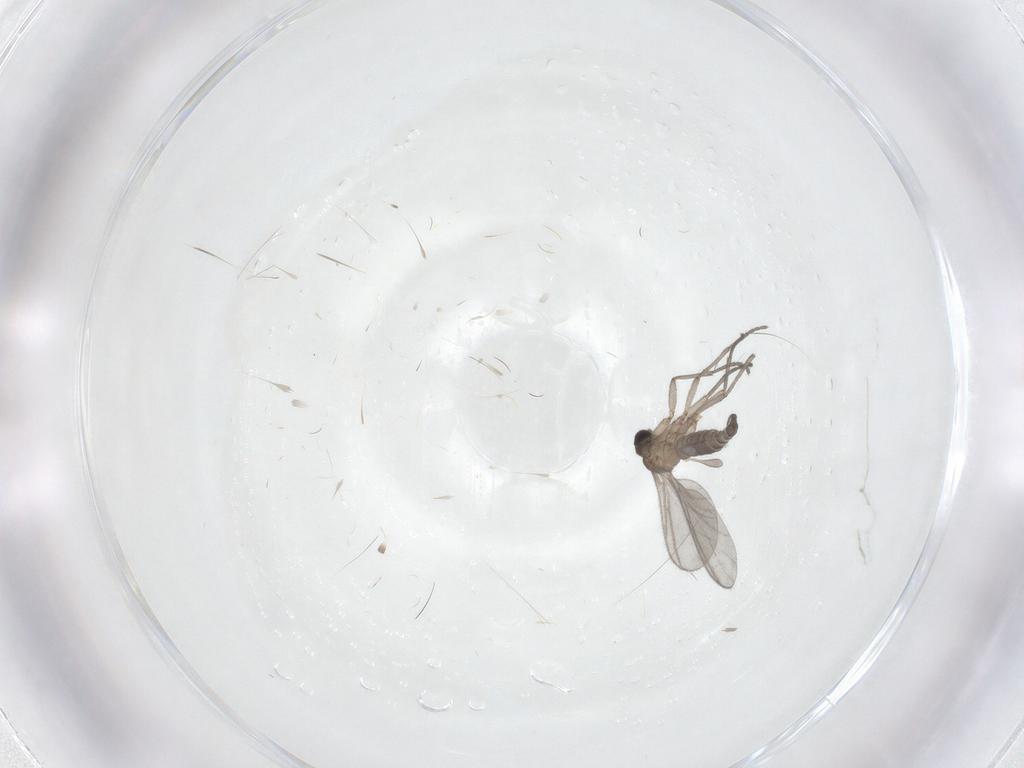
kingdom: Animalia
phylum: Arthropoda
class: Insecta
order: Diptera
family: Sciaridae
